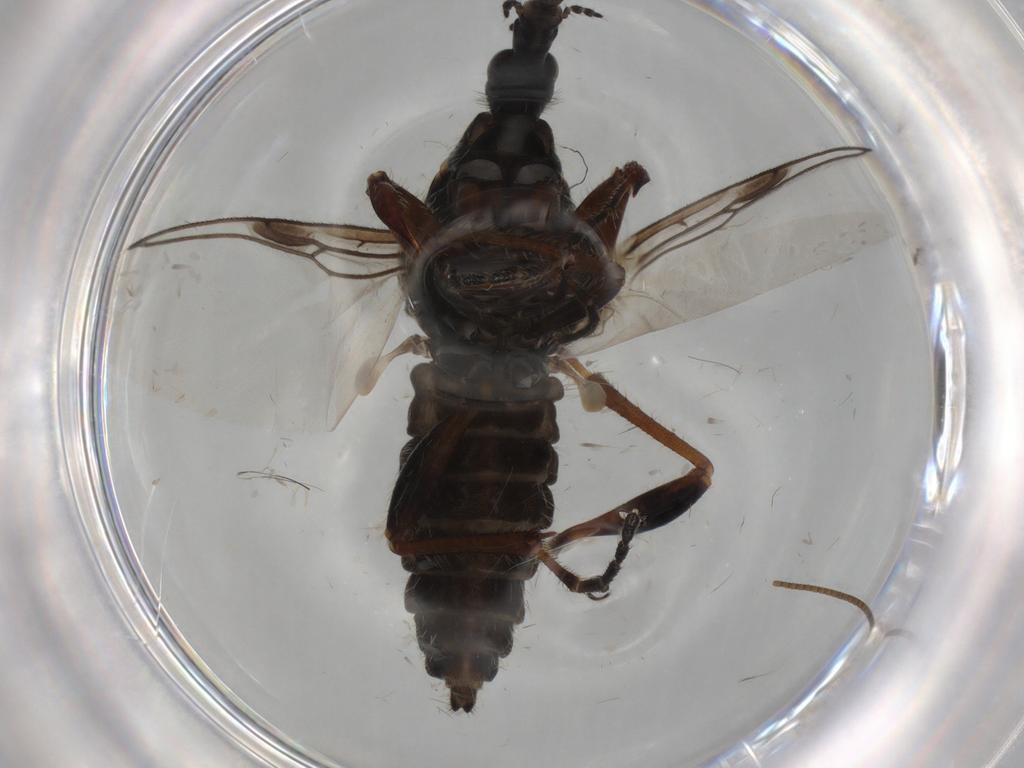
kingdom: Animalia
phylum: Arthropoda
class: Insecta
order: Diptera
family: Bibionidae
